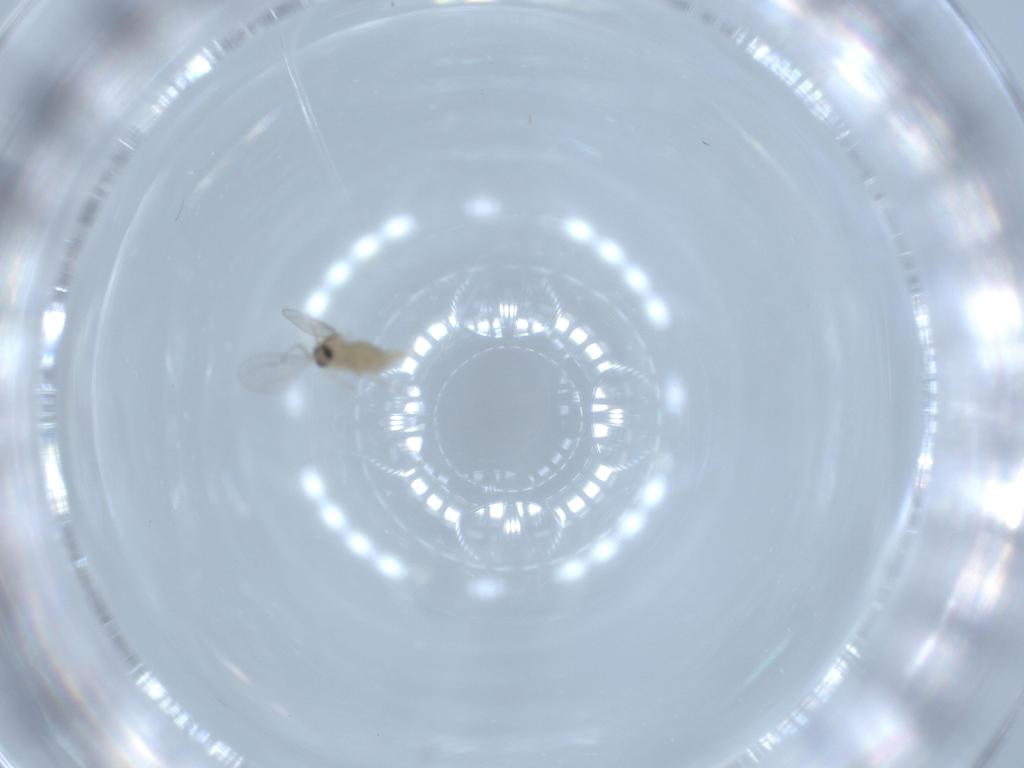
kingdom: Animalia
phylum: Arthropoda
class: Insecta
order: Diptera
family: Cecidomyiidae
